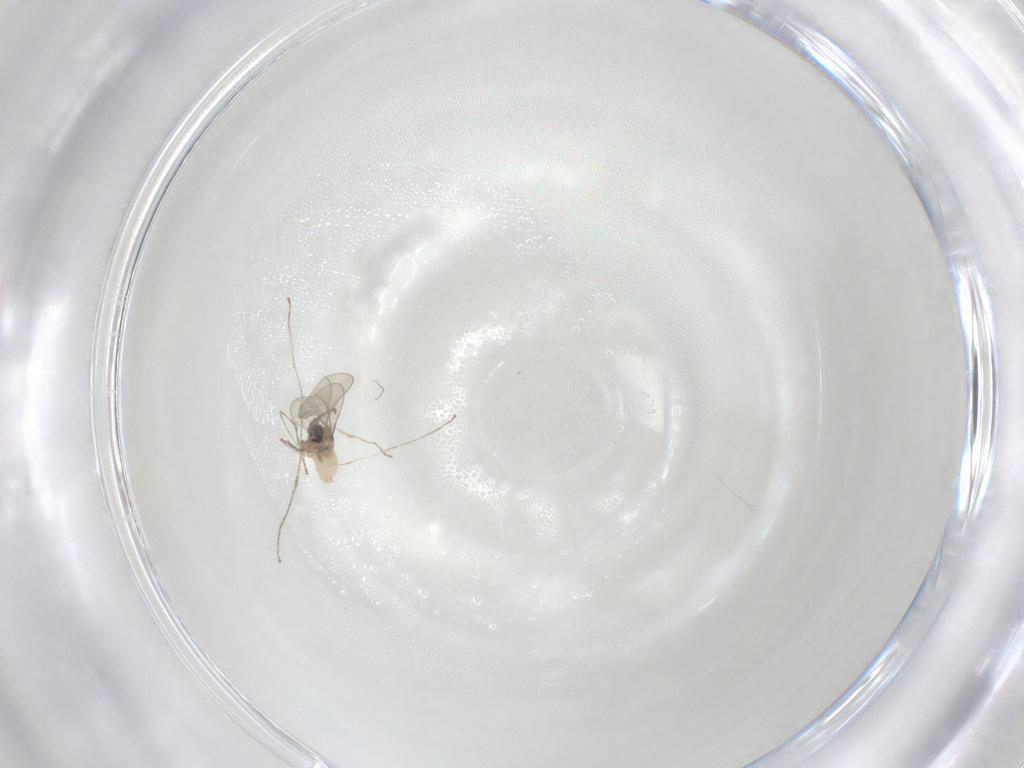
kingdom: Animalia
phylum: Arthropoda
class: Insecta
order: Diptera
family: Cecidomyiidae
